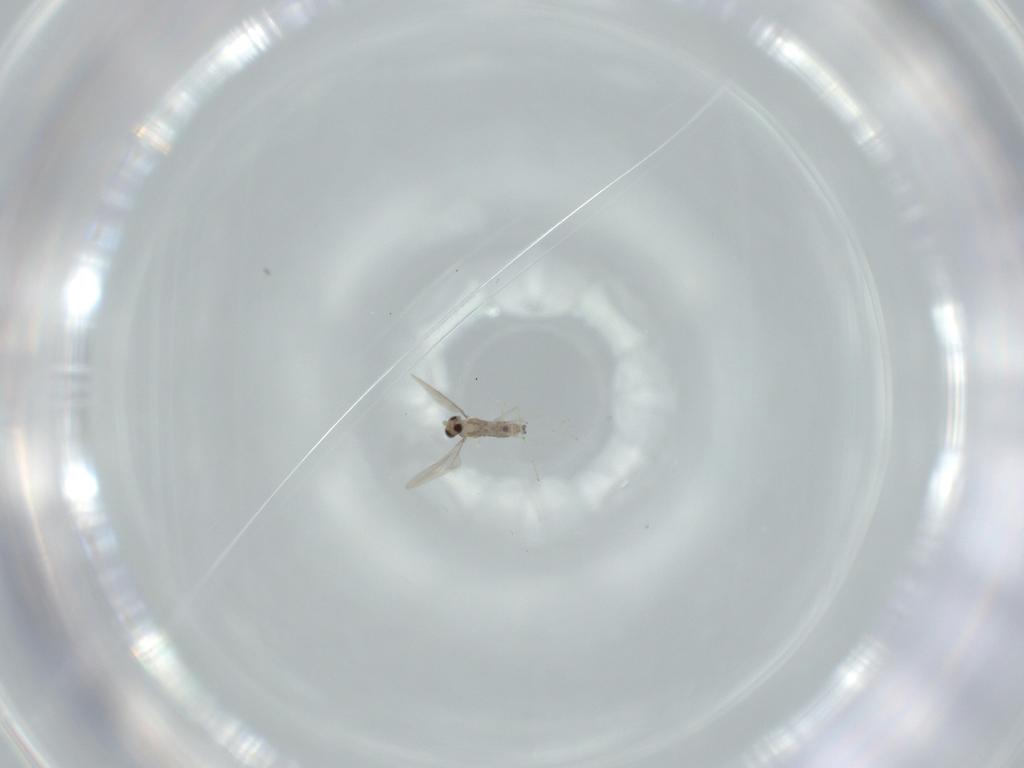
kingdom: Animalia
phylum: Arthropoda
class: Insecta
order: Diptera
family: Cecidomyiidae
